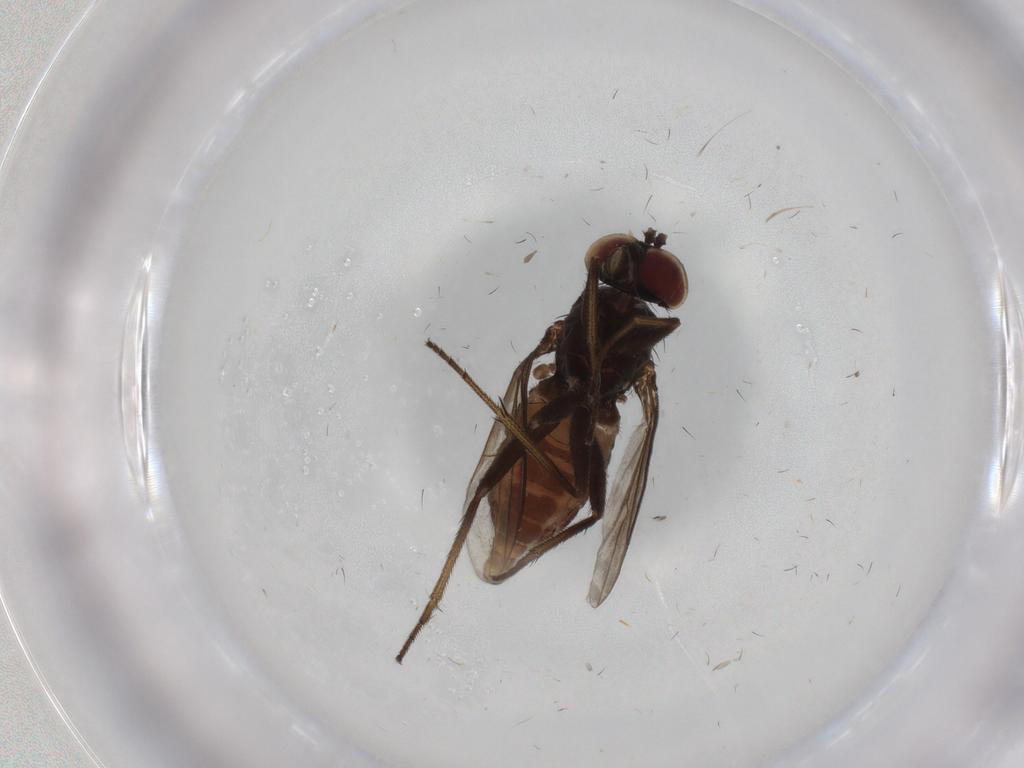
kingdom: Animalia
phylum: Arthropoda
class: Insecta
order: Diptera
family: Dolichopodidae
